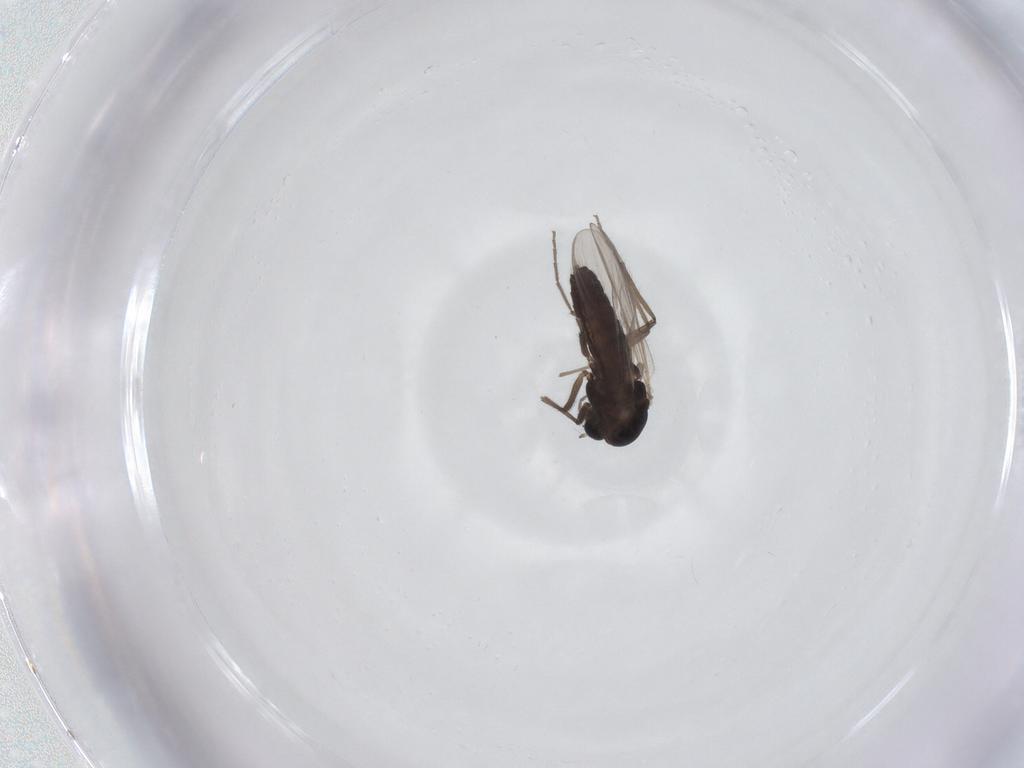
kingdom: Animalia
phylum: Arthropoda
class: Insecta
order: Diptera
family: Chironomidae
